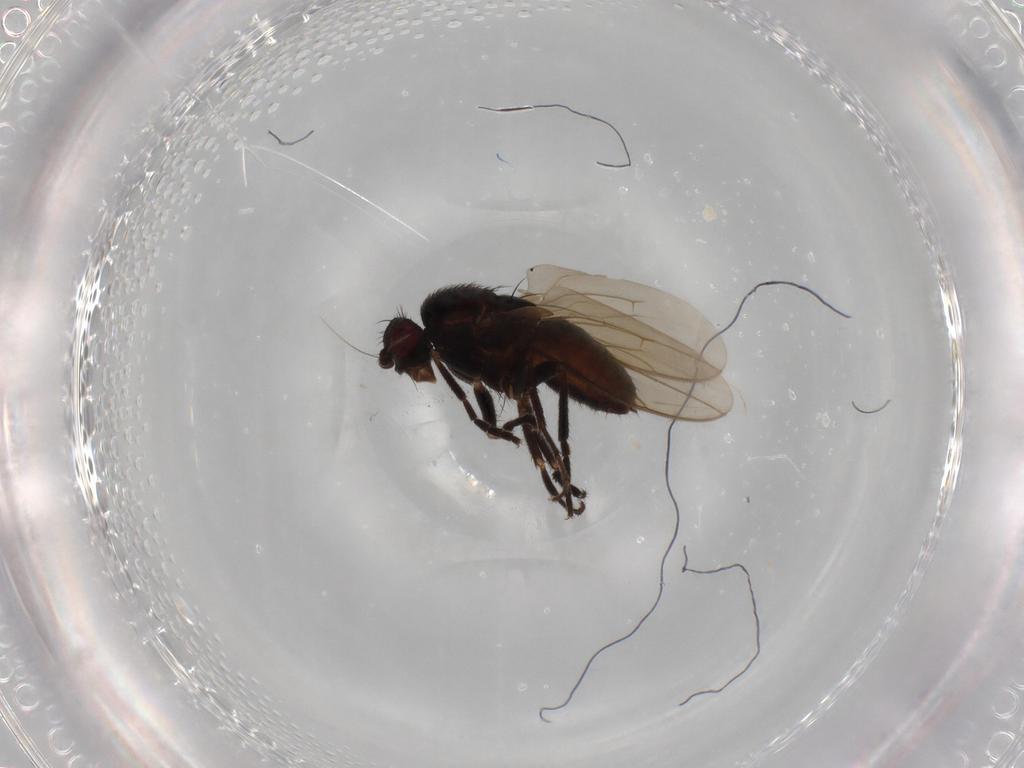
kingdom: Animalia
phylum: Arthropoda
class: Insecta
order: Diptera
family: Sphaeroceridae
